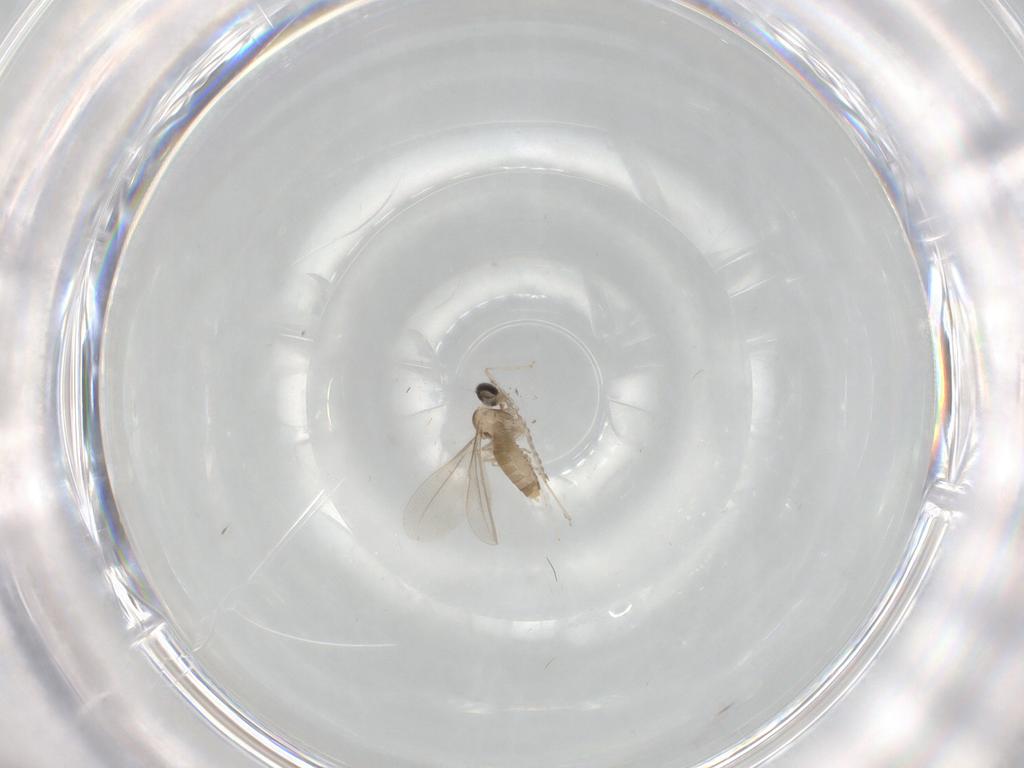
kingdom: Animalia
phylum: Arthropoda
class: Insecta
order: Diptera
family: Cecidomyiidae
